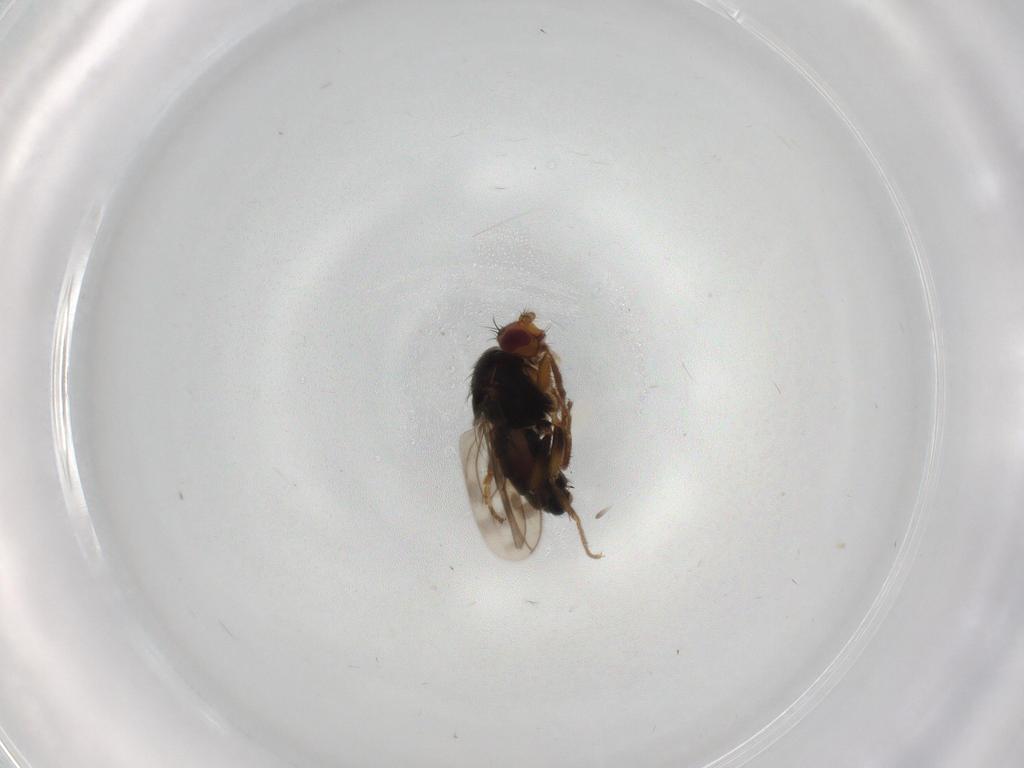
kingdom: Animalia
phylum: Arthropoda
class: Insecta
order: Diptera
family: Sphaeroceridae
